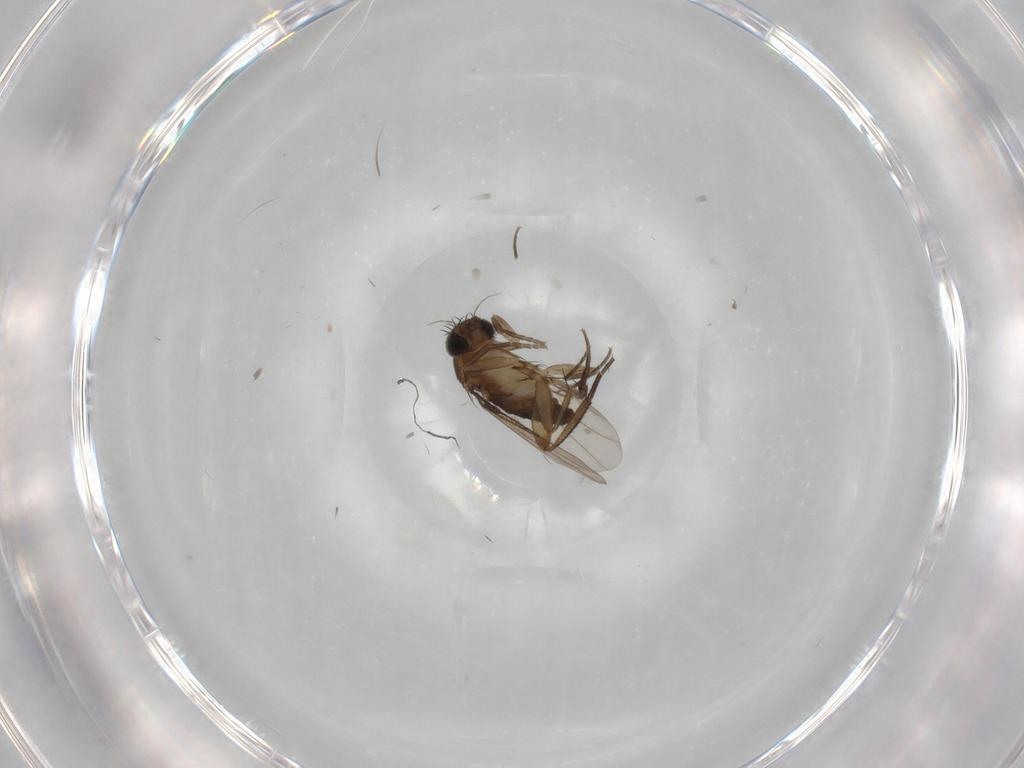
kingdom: Animalia
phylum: Arthropoda
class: Insecta
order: Diptera
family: Phoridae
